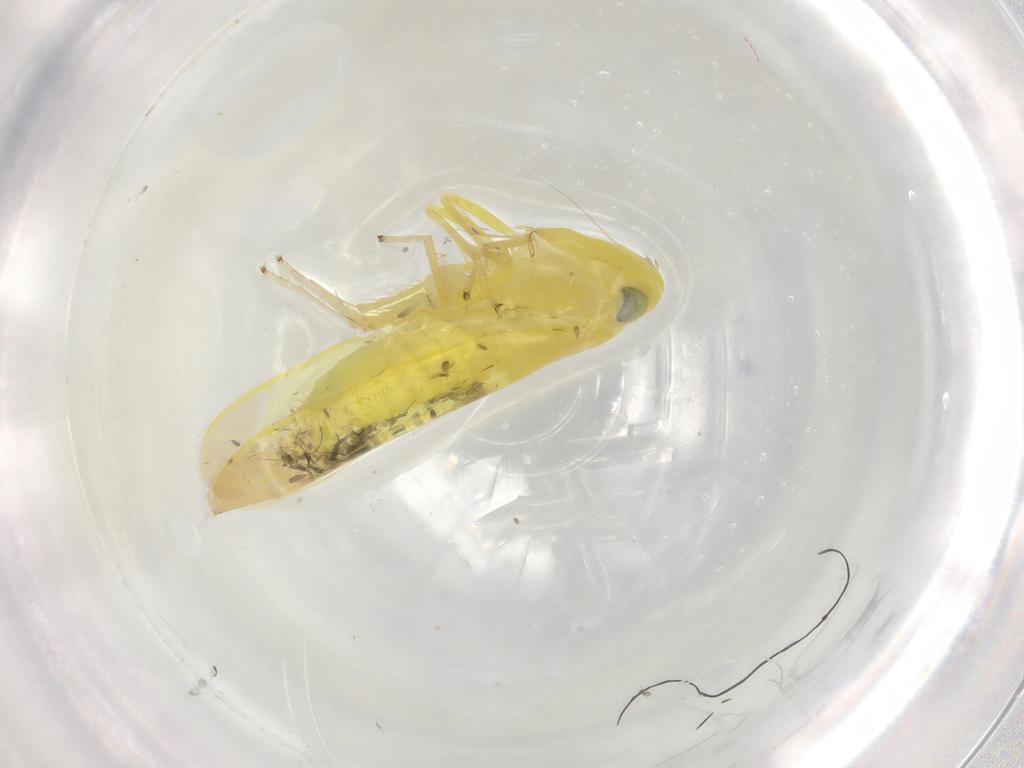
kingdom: Animalia
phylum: Arthropoda
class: Insecta
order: Hemiptera
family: Cicadellidae
